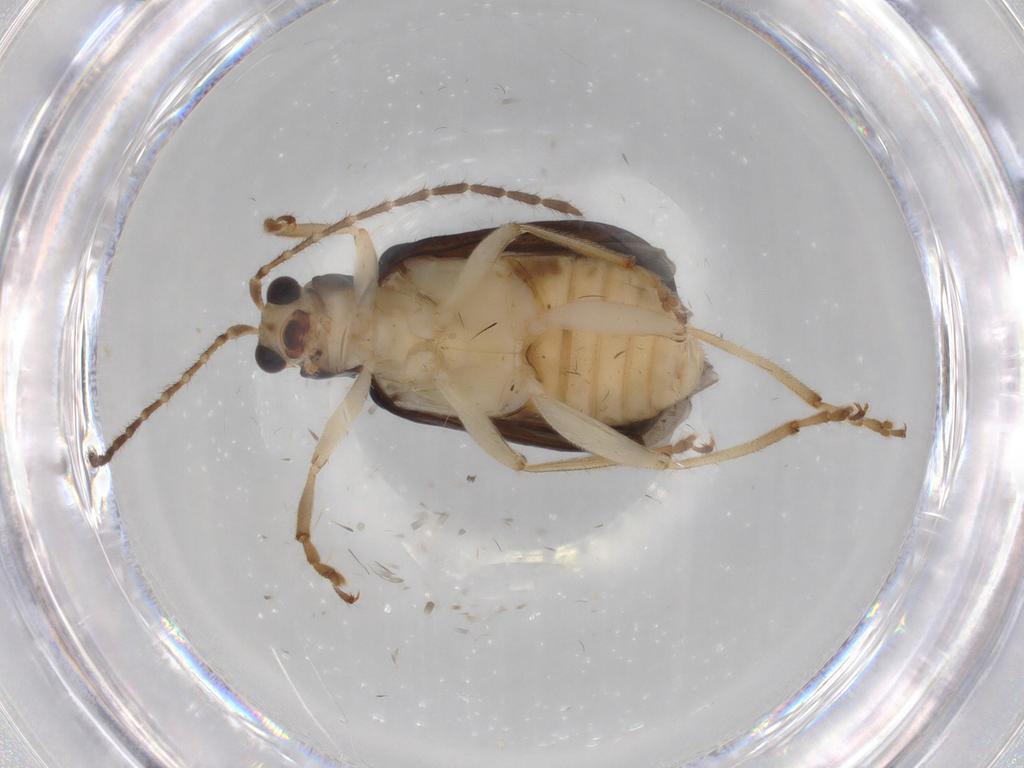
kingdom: Animalia
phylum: Arthropoda
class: Insecta
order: Coleoptera
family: Chrysomelidae
